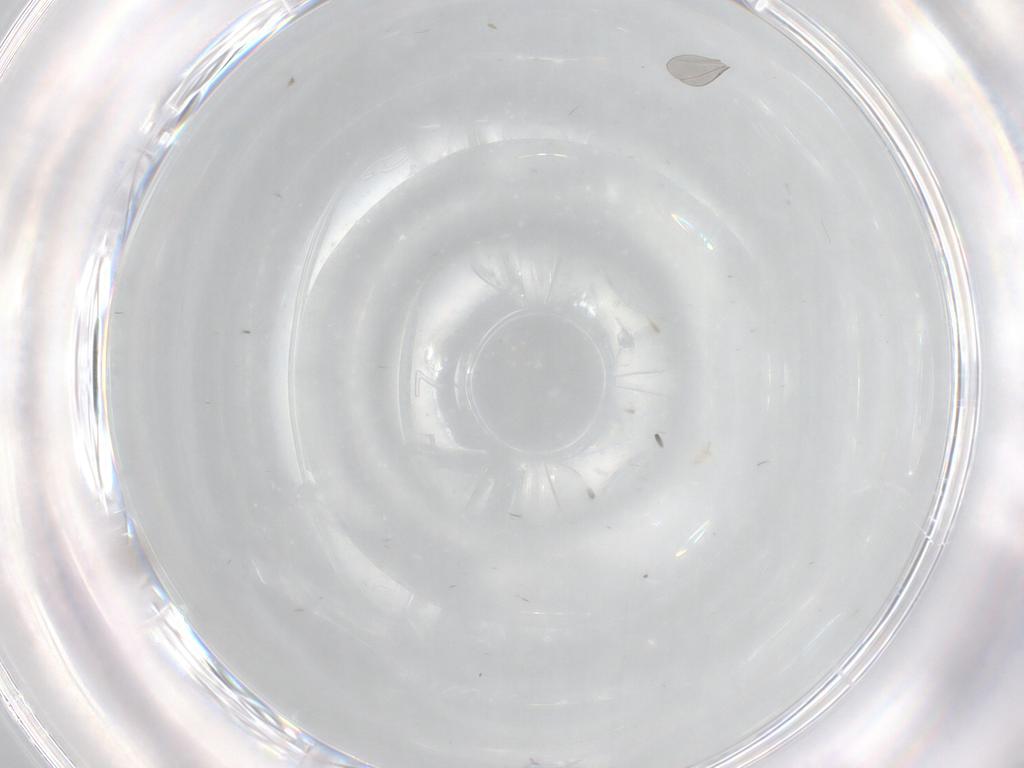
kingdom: Animalia
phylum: Arthropoda
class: Insecta
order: Diptera
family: Cecidomyiidae
